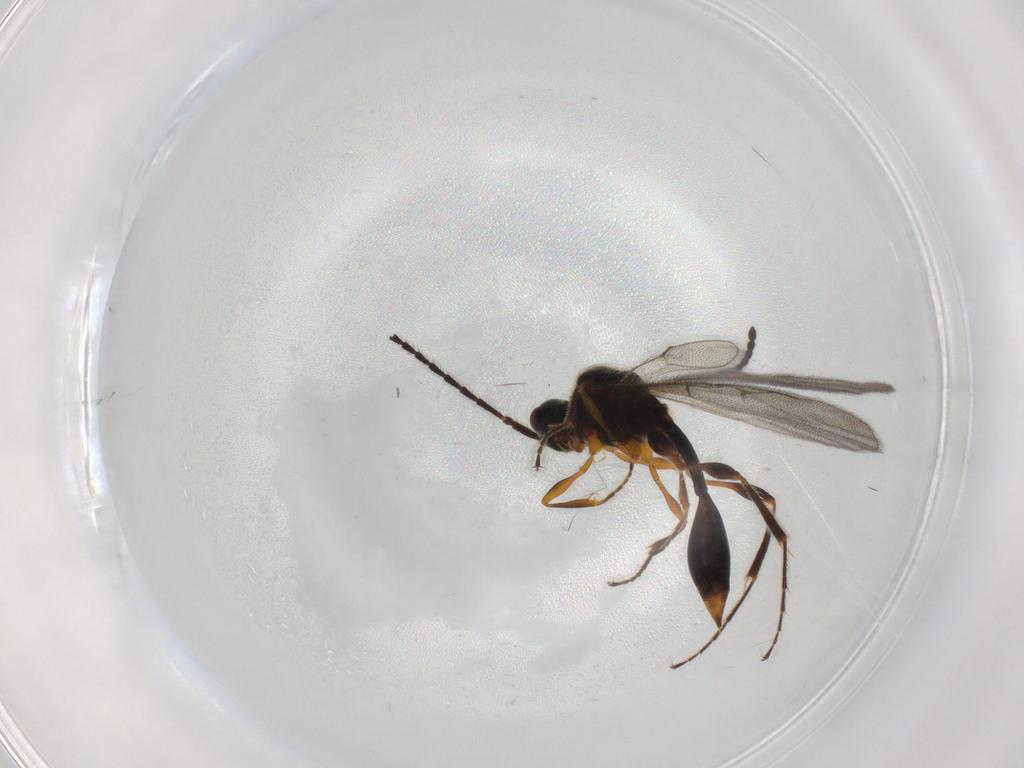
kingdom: Animalia
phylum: Arthropoda
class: Insecta
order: Hymenoptera
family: Diapriidae
